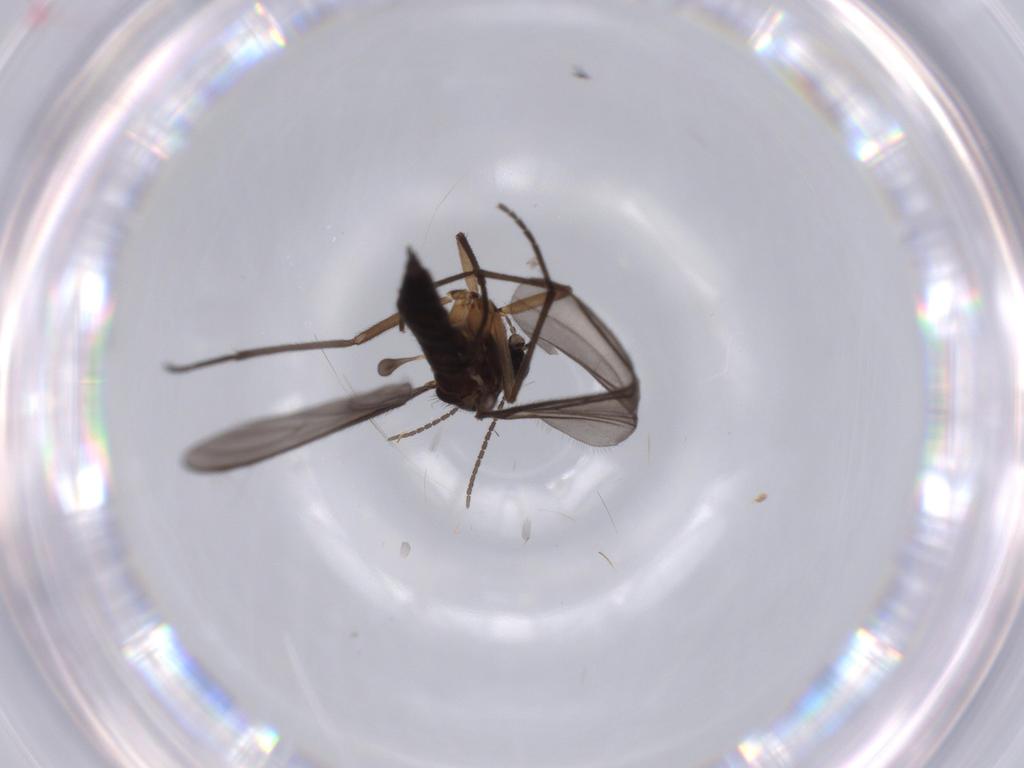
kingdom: Animalia
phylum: Arthropoda
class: Insecta
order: Diptera
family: Sciaridae
